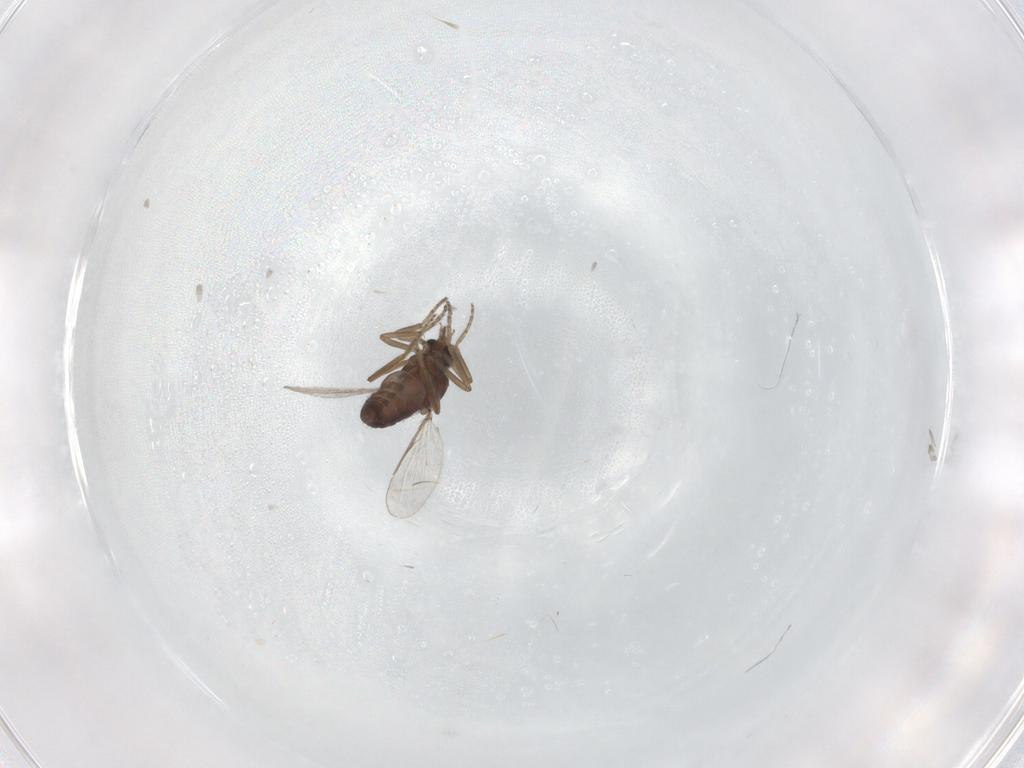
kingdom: Animalia
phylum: Arthropoda
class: Insecta
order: Diptera
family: Ceratopogonidae
